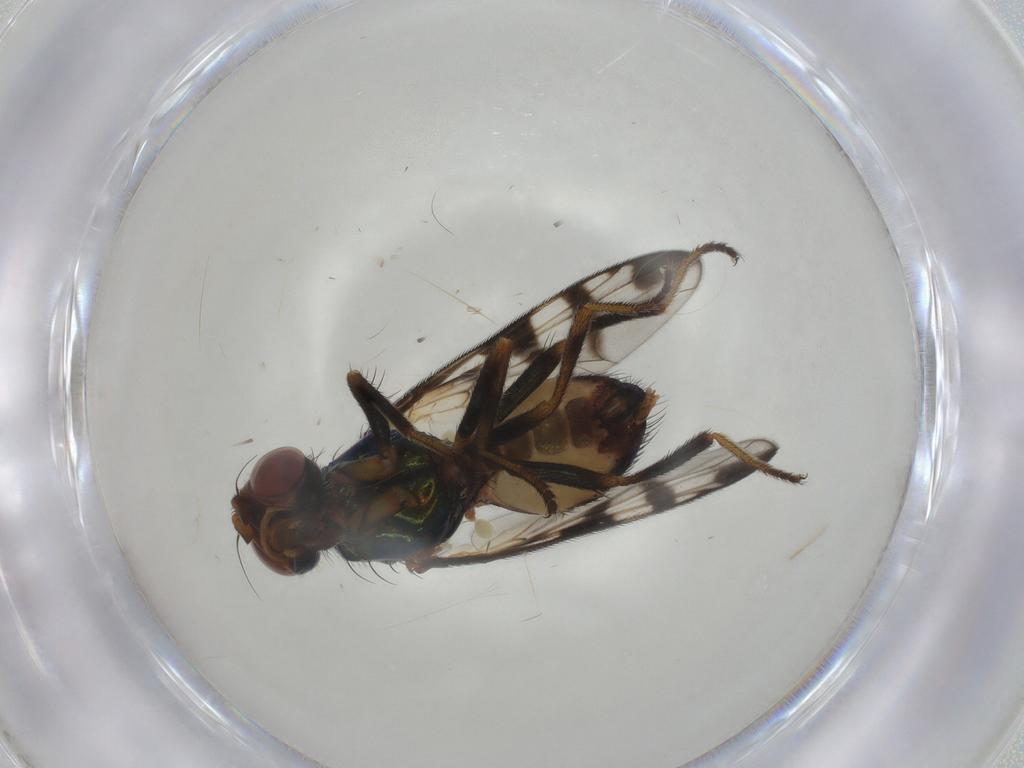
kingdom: Animalia
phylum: Arthropoda
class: Insecta
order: Diptera
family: Platystomatidae
